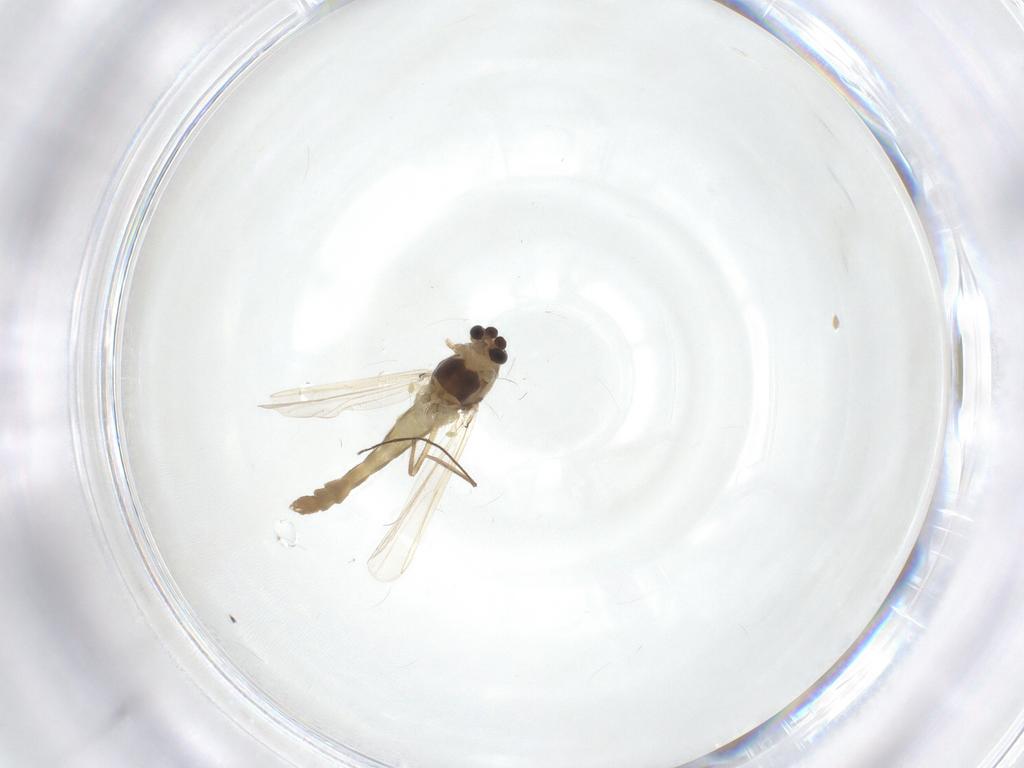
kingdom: Animalia
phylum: Arthropoda
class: Insecta
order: Diptera
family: Chironomidae
